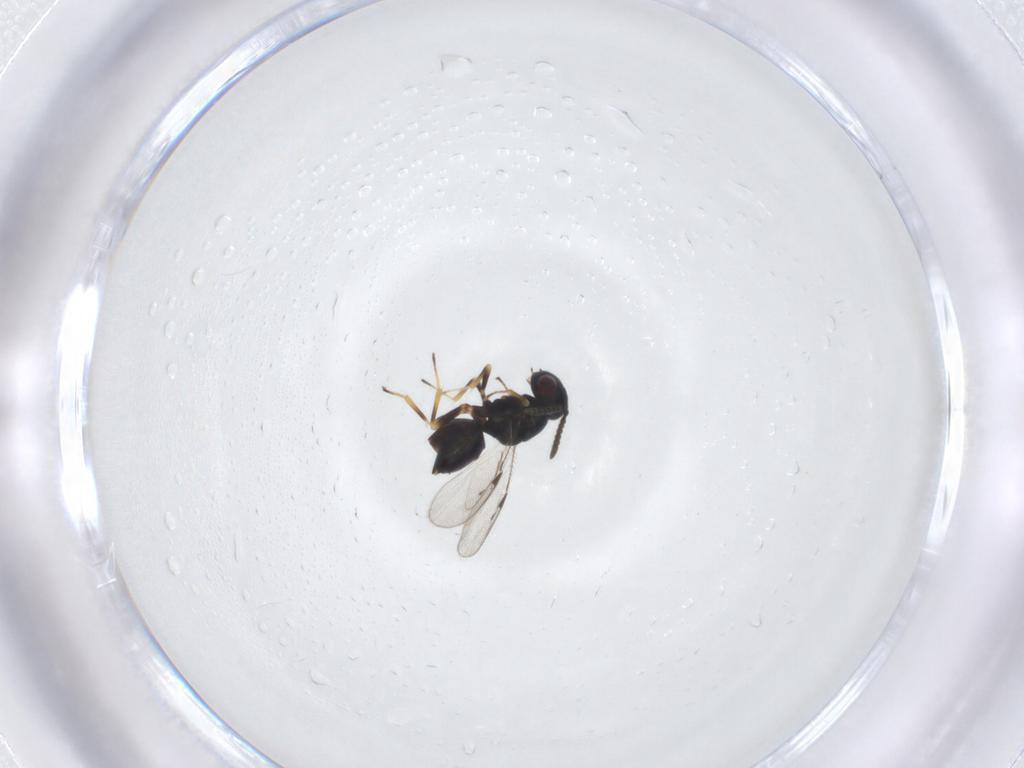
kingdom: Animalia
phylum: Arthropoda
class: Insecta
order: Hymenoptera
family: Pteromalidae
